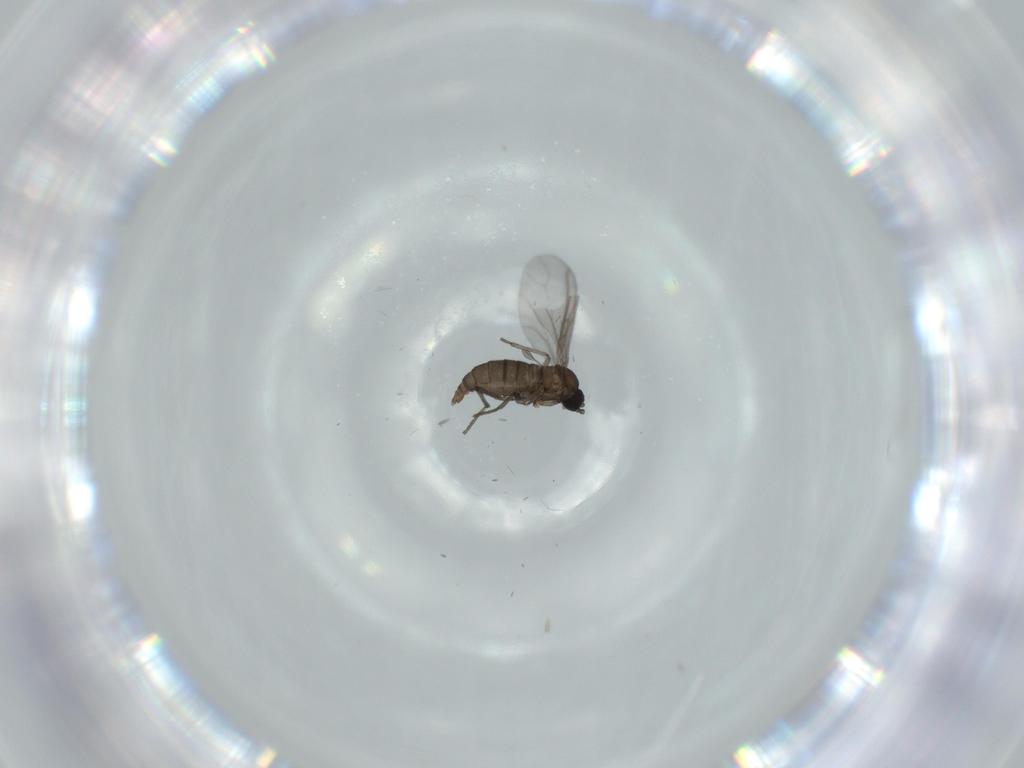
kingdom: Animalia
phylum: Arthropoda
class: Insecta
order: Diptera
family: Sciaridae
